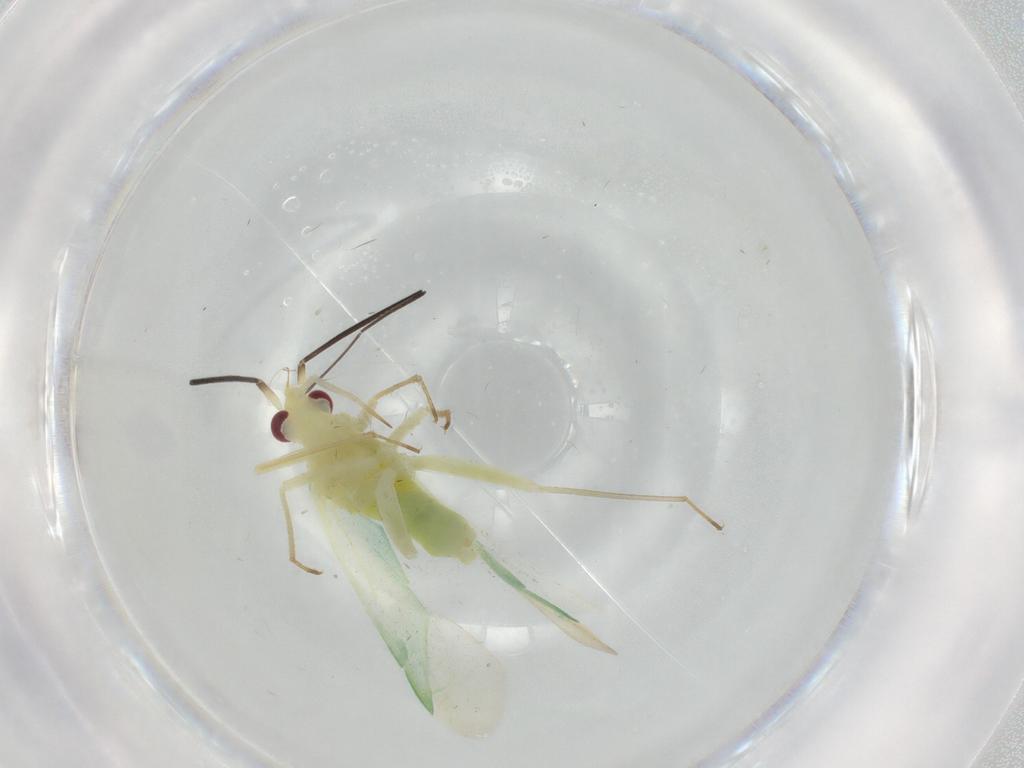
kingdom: Animalia
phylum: Arthropoda
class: Insecta
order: Hemiptera
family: Miridae
